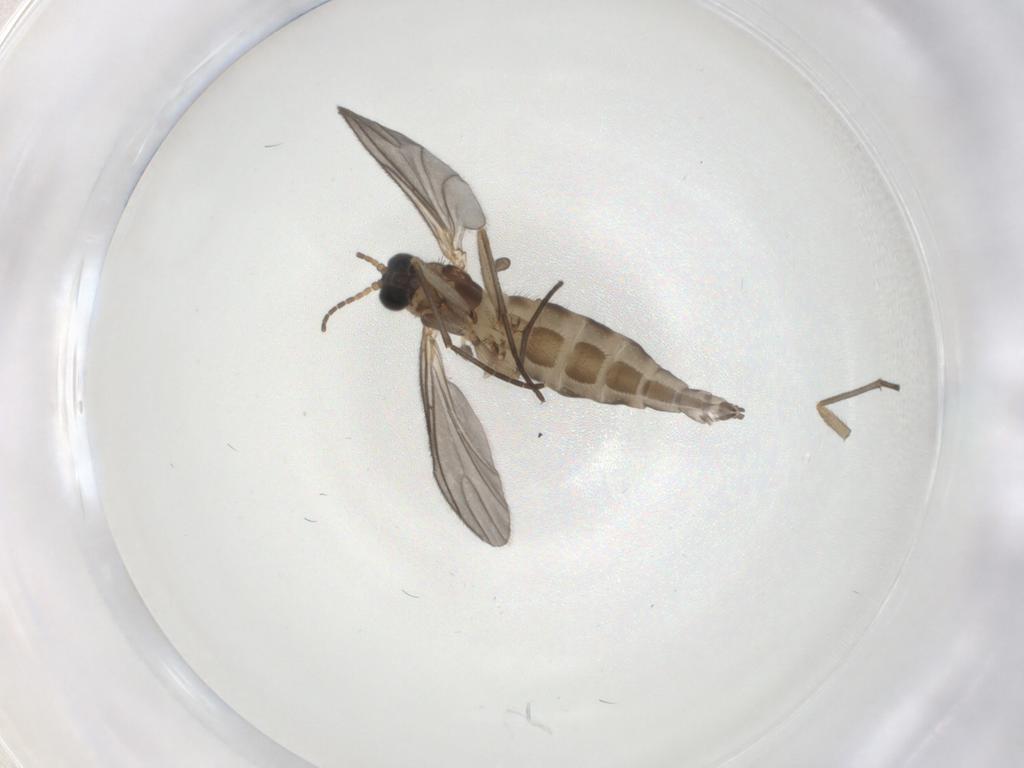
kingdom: Animalia
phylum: Arthropoda
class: Insecta
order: Diptera
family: Sciaridae
